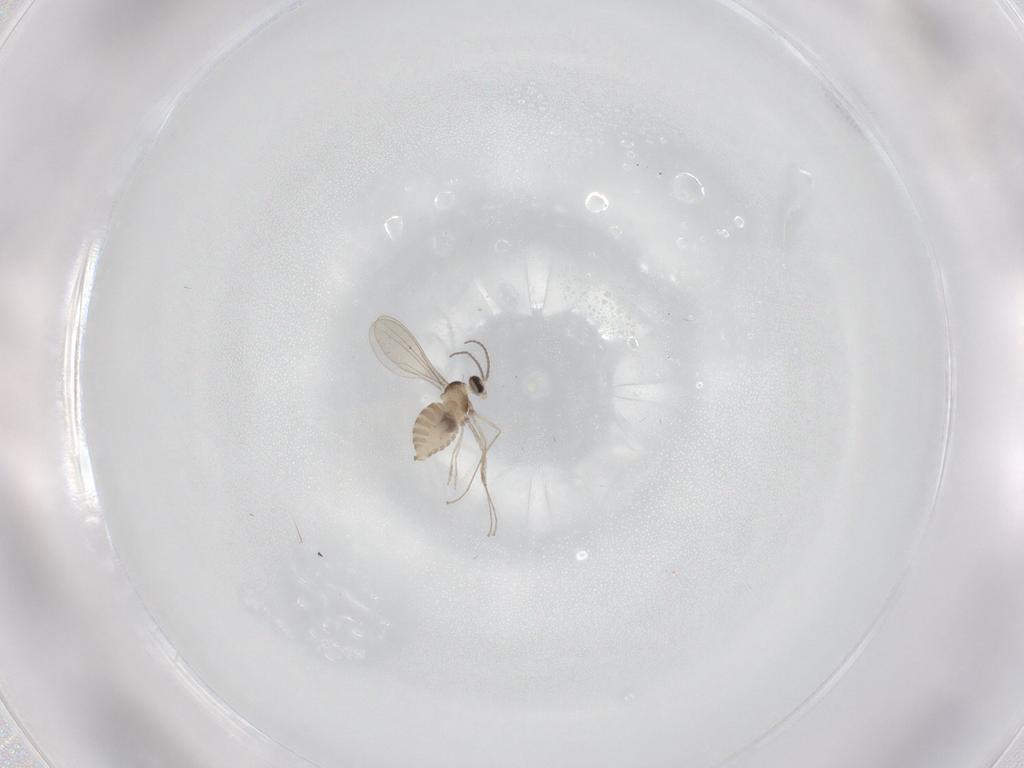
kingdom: Animalia
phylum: Arthropoda
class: Insecta
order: Diptera
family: Cecidomyiidae
